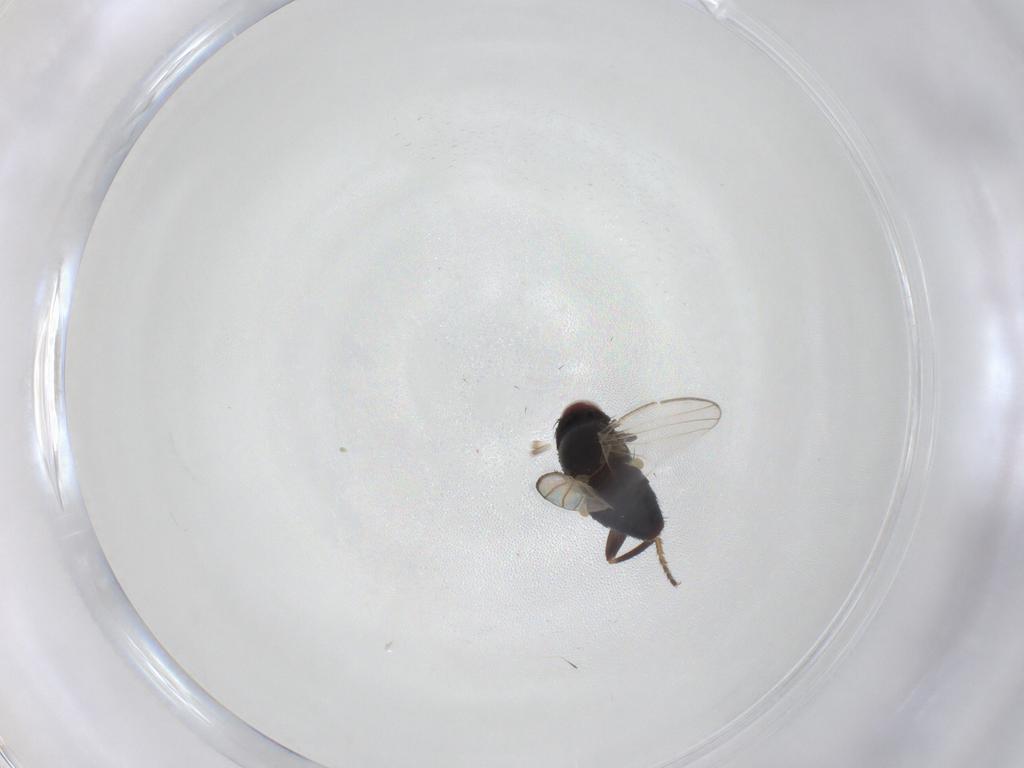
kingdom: Animalia
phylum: Arthropoda
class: Insecta
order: Diptera
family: Milichiidae
